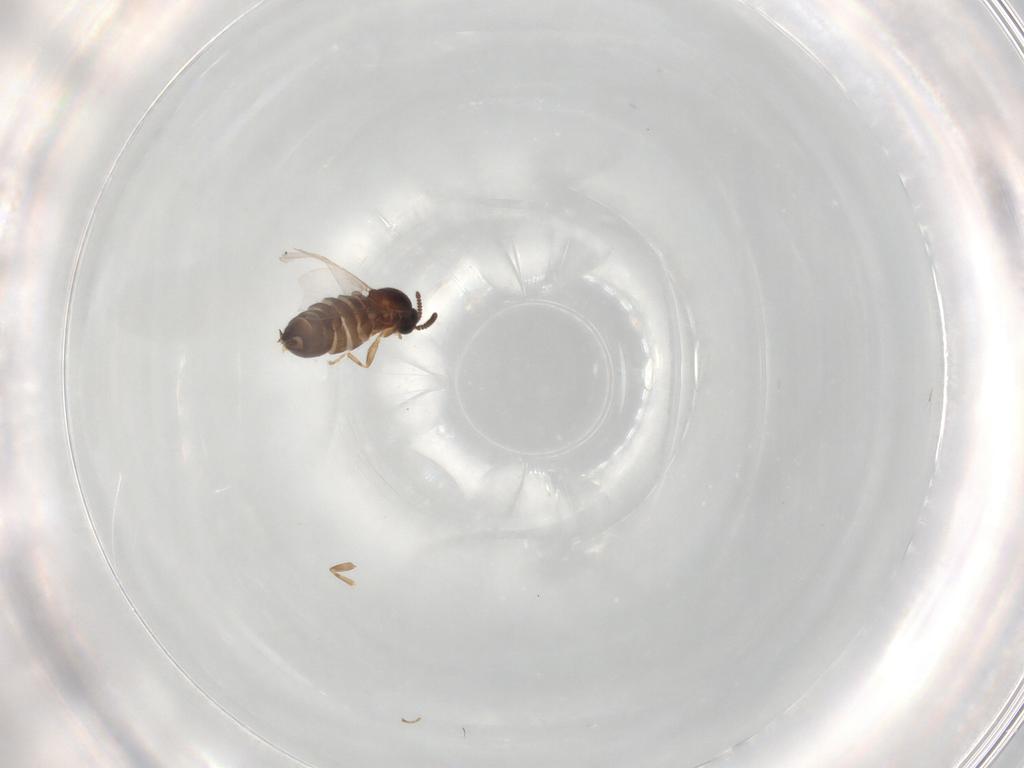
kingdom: Animalia
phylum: Arthropoda
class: Insecta
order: Diptera
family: Scatopsidae
